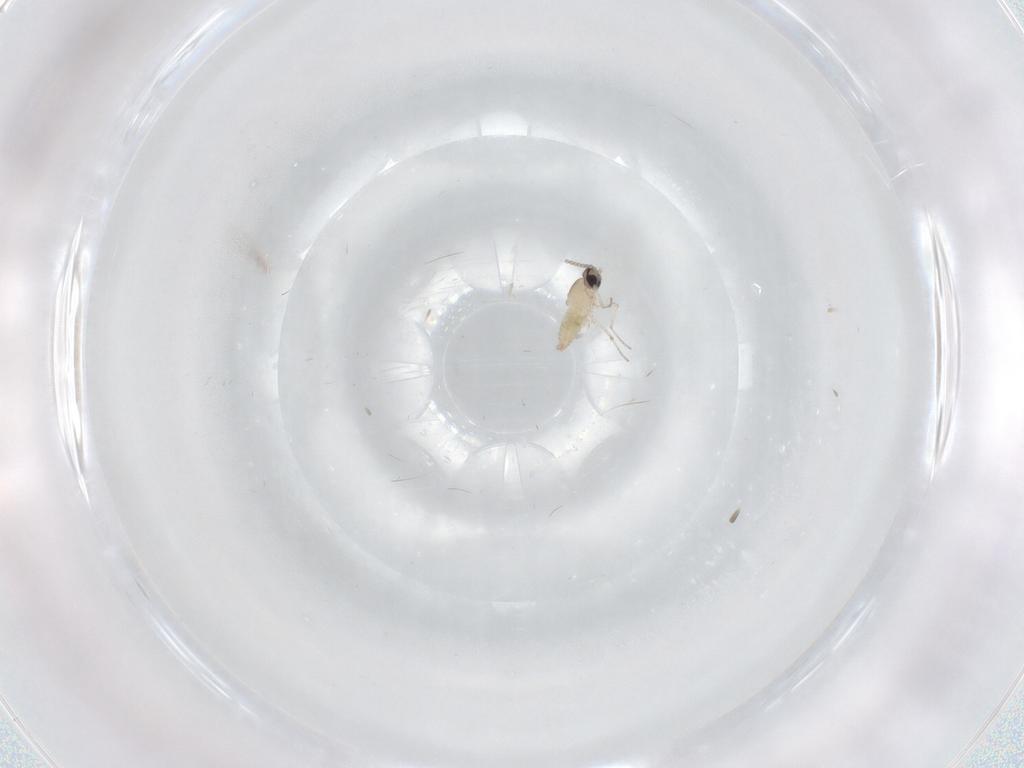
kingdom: Animalia
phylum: Arthropoda
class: Insecta
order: Diptera
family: Cecidomyiidae
